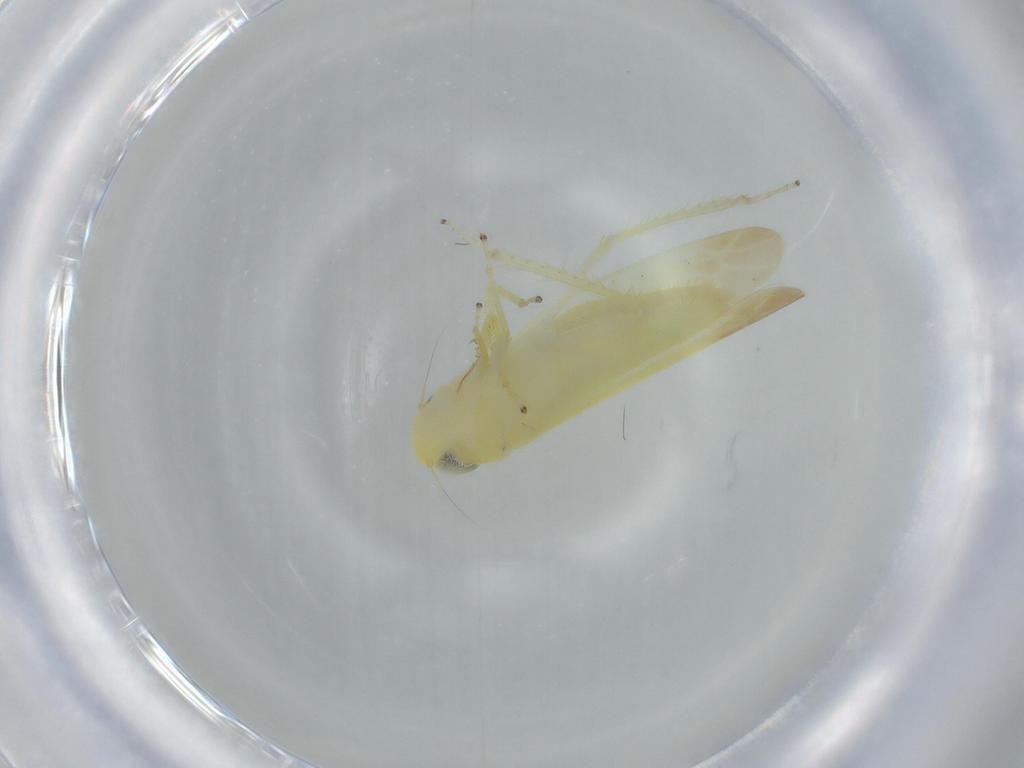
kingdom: Animalia
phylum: Arthropoda
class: Insecta
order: Hemiptera
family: Cicadellidae
